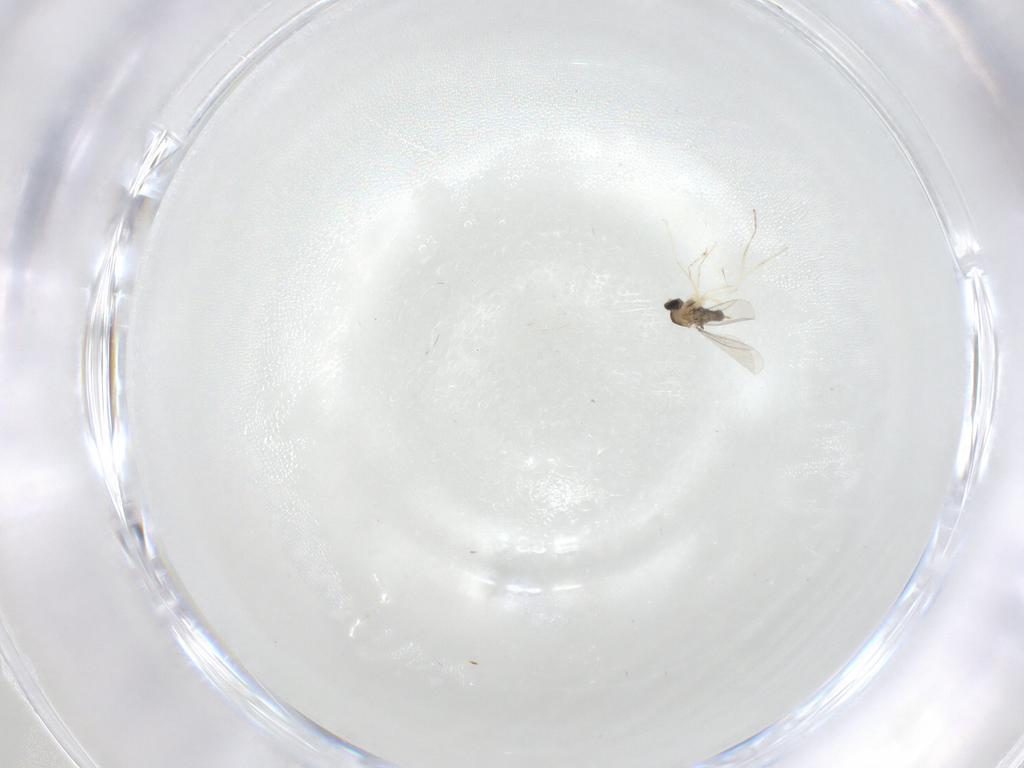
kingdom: Animalia
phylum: Arthropoda
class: Insecta
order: Diptera
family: Cecidomyiidae
